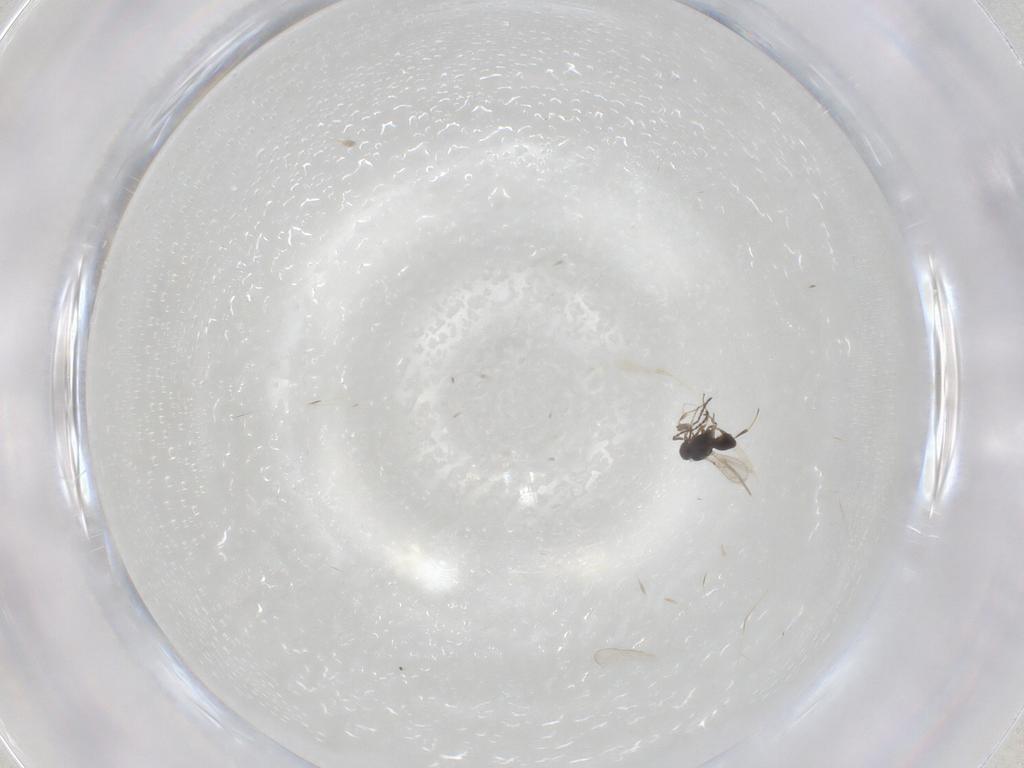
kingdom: Animalia
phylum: Arthropoda
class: Insecta
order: Hymenoptera
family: Scelionidae
